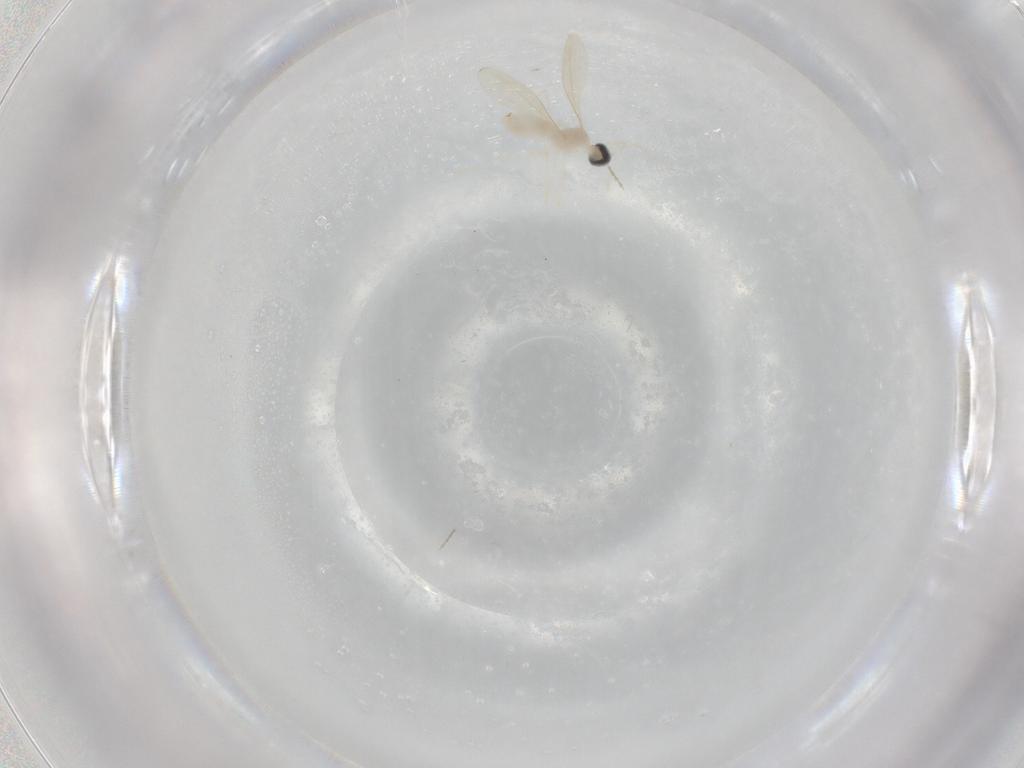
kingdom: Animalia
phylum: Arthropoda
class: Insecta
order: Diptera
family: Cecidomyiidae
